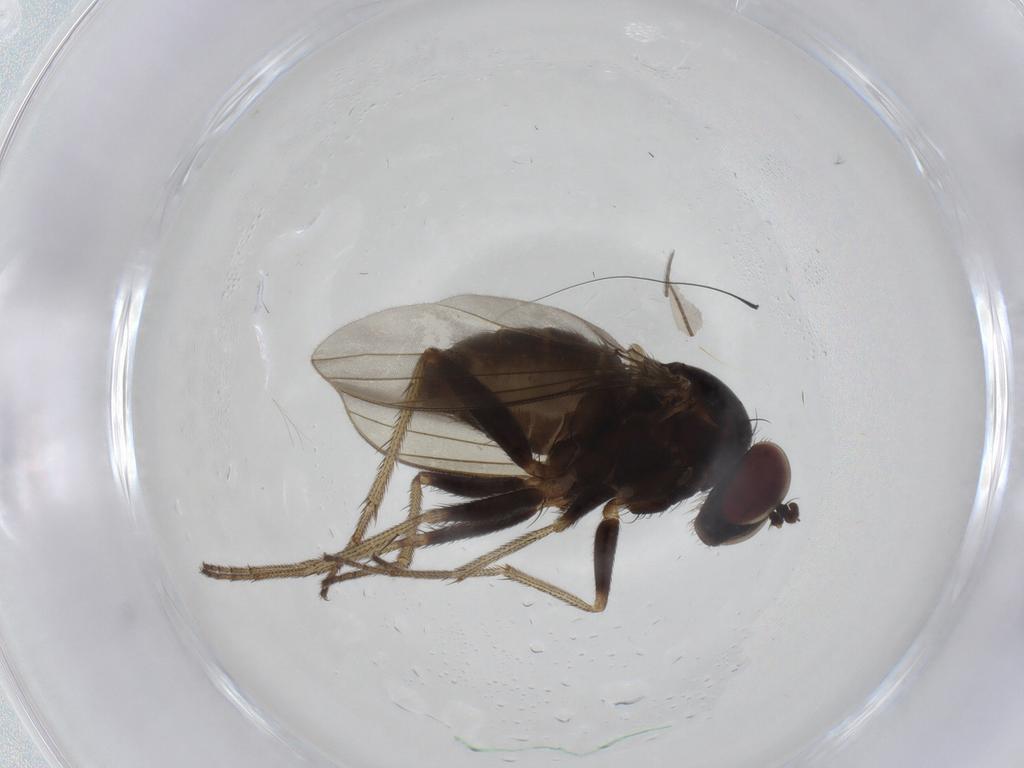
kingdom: Animalia
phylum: Arthropoda
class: Insecta
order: Diptera
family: Dolichopodidae
